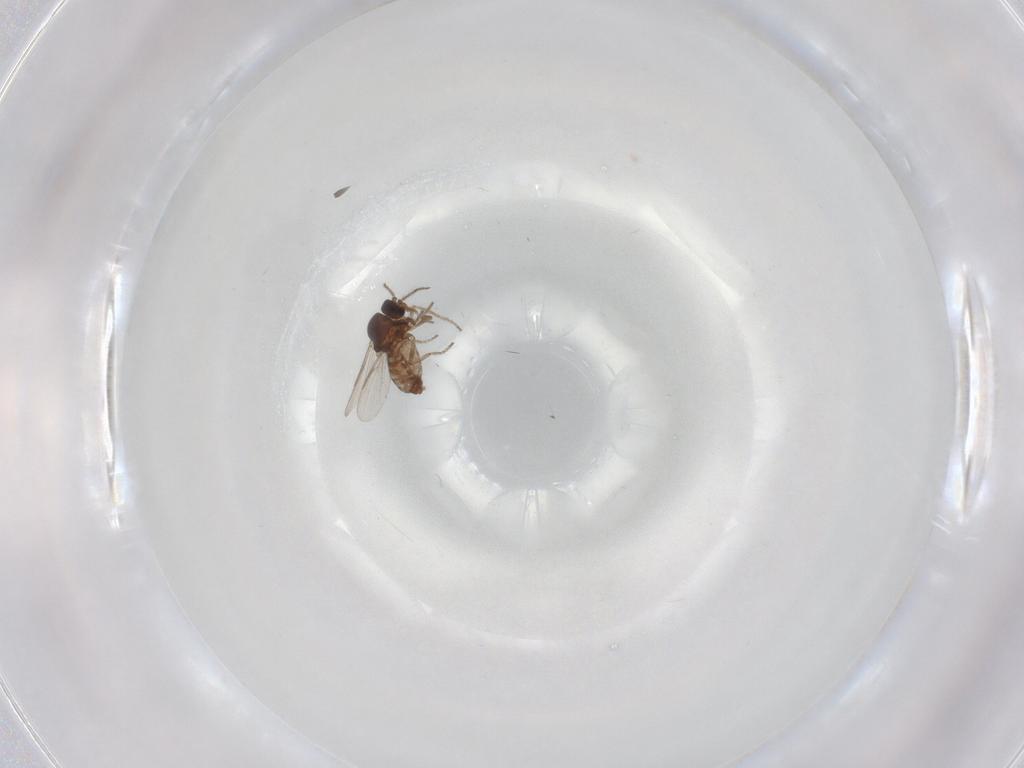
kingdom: Animalia
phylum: Arthropoda
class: Insecta
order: Diptera
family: Ceratopogonidae
